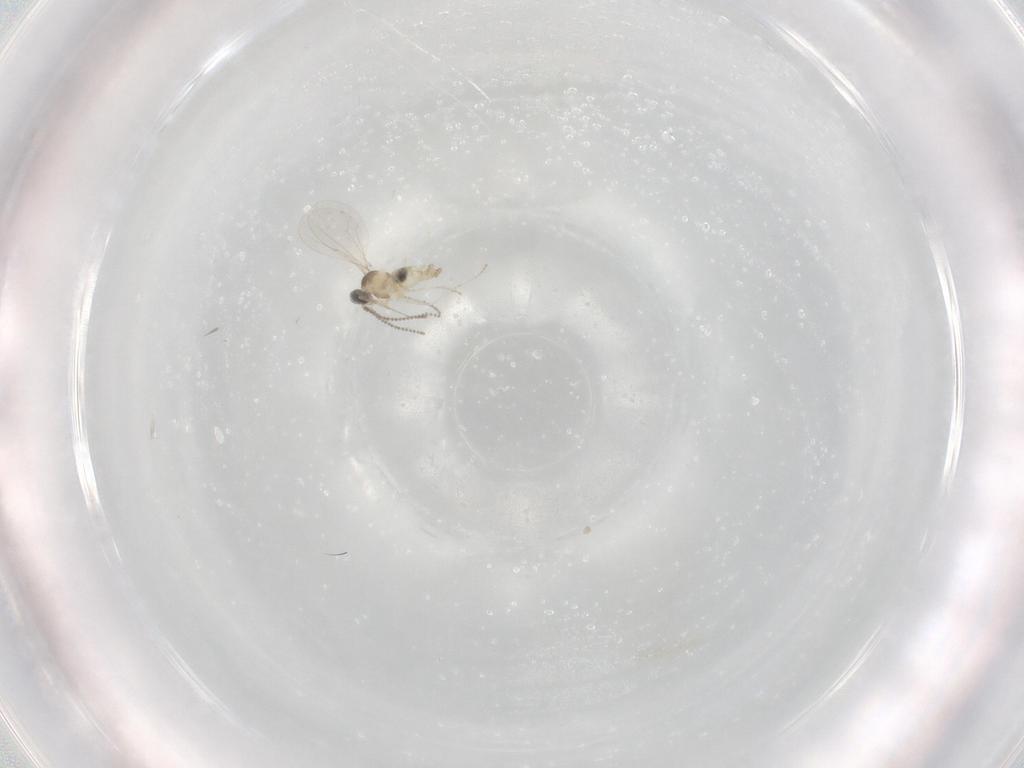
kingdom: Animalia
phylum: Arthropoda
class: Insecta
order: Diptera
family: Cecidomyiidae
